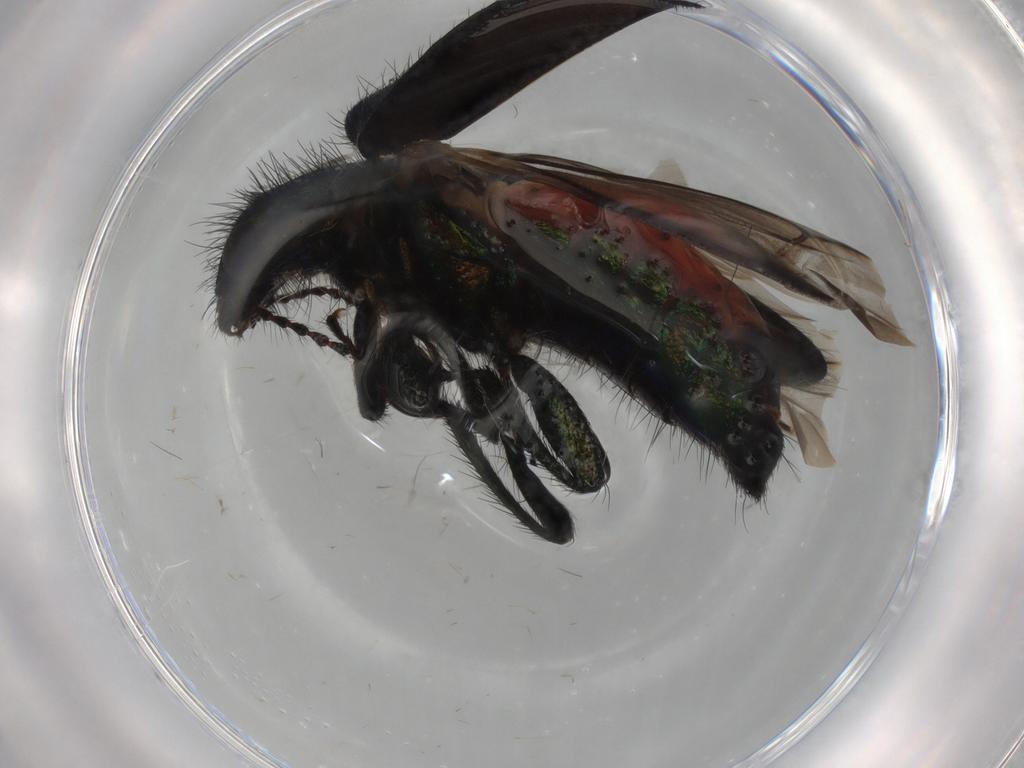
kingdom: Animalia
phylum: Arthropoda
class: Insecta
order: Coleoptera
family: Melyridae
